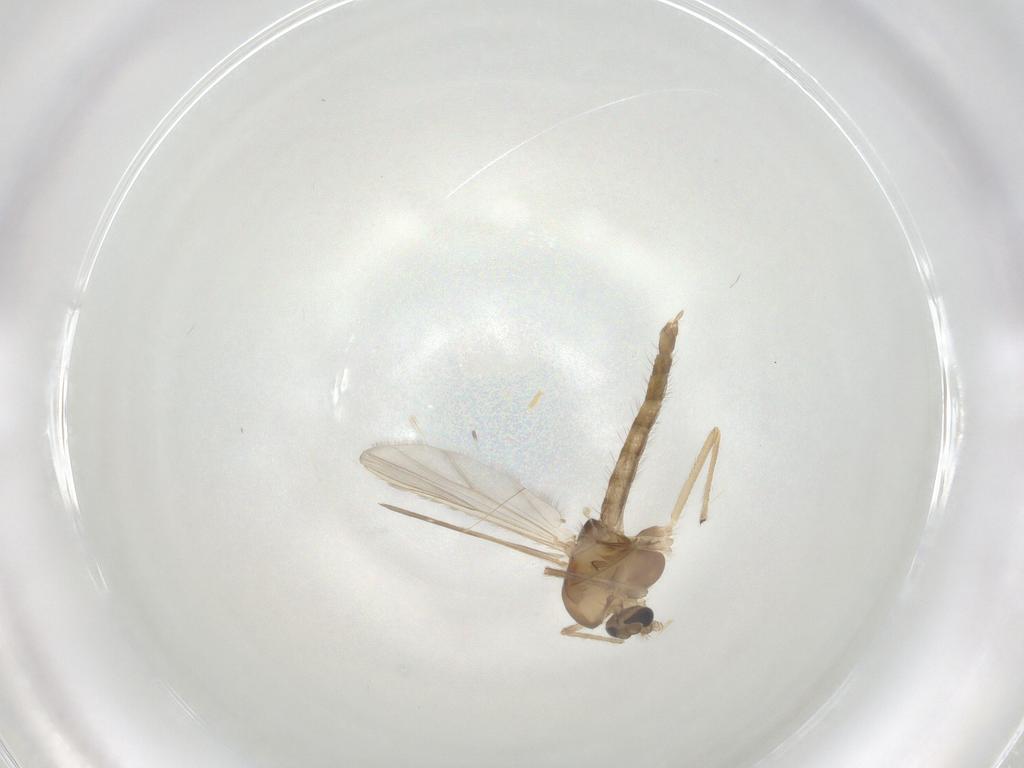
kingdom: Animalia
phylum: Arthropoda
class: Insecta
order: Diptera
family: Chironomidae
